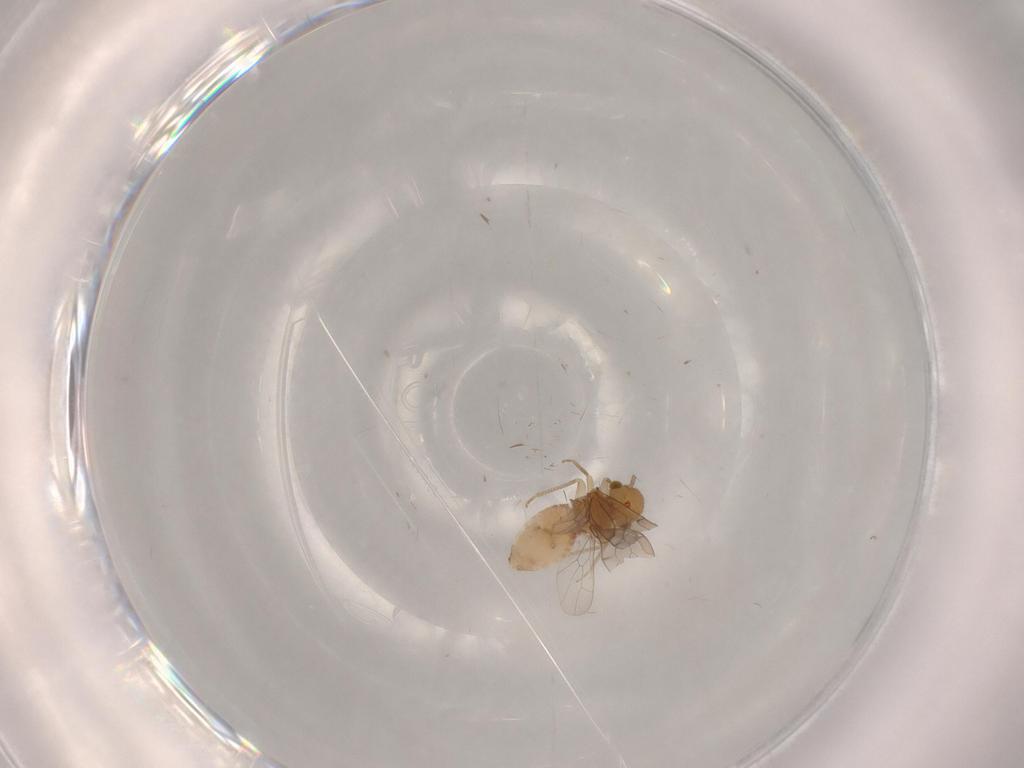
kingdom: Animalia
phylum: Arthropoda
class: Insecta
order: Psocodea
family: Ectopsocidae
